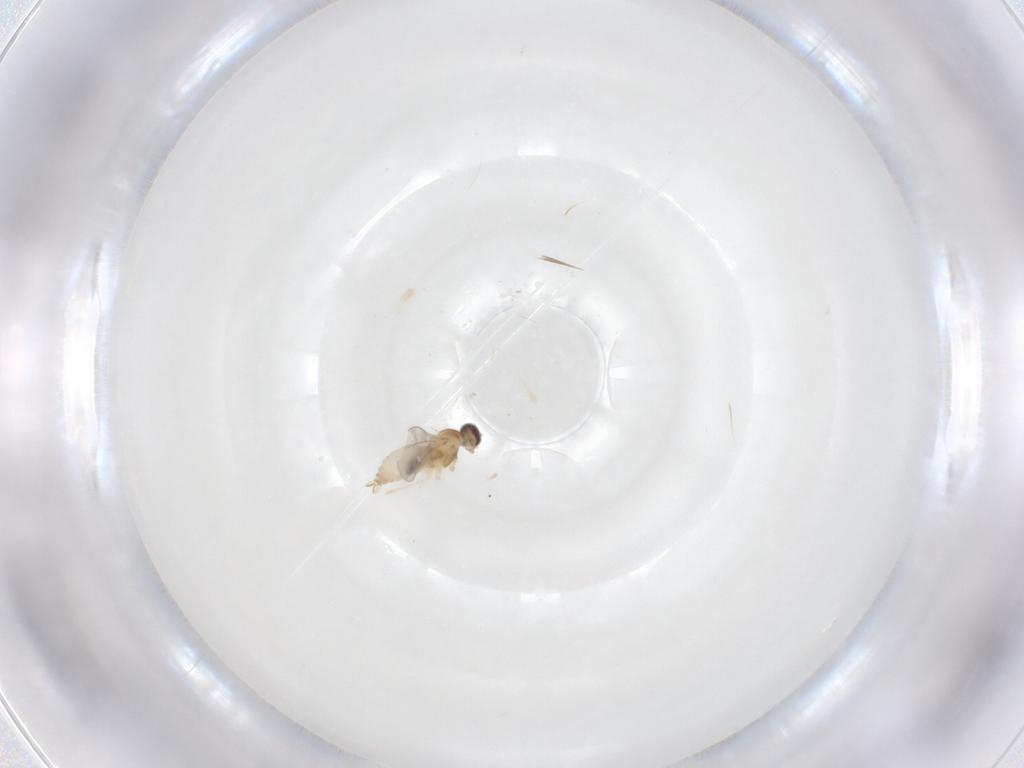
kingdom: Animalia
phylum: Arthropoda
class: Insecta
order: Diptera
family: Cecidomyiidae
